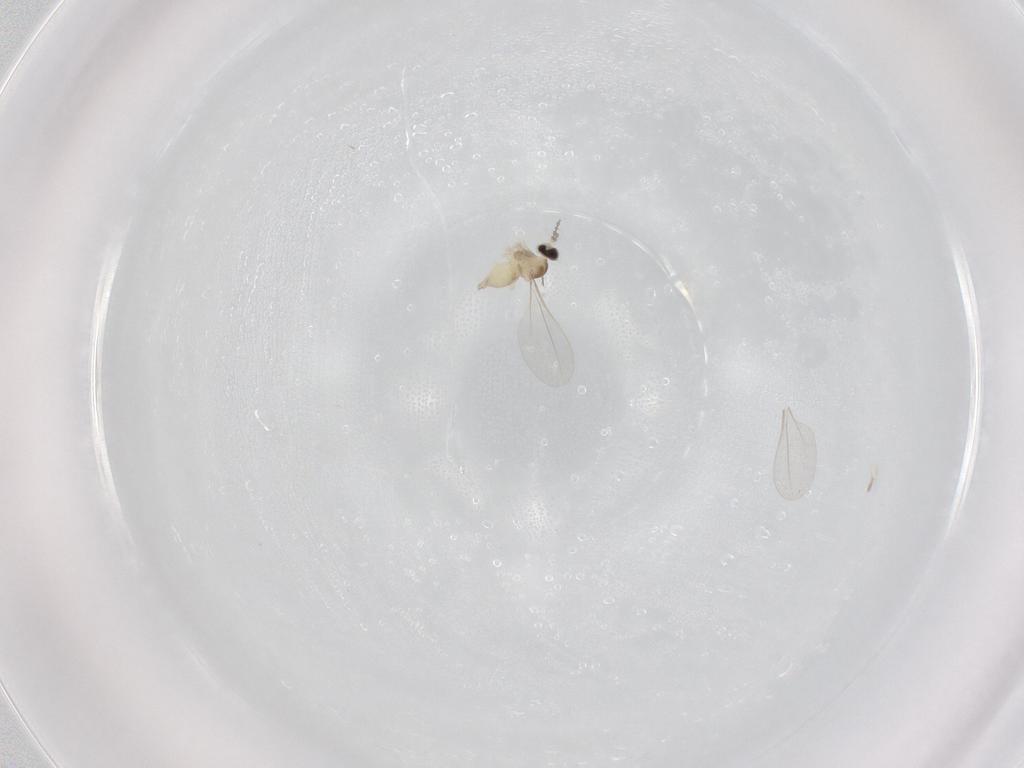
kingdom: Animalia
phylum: Arthropoda
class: Insecta
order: Diptera
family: Cecidomyiidae
